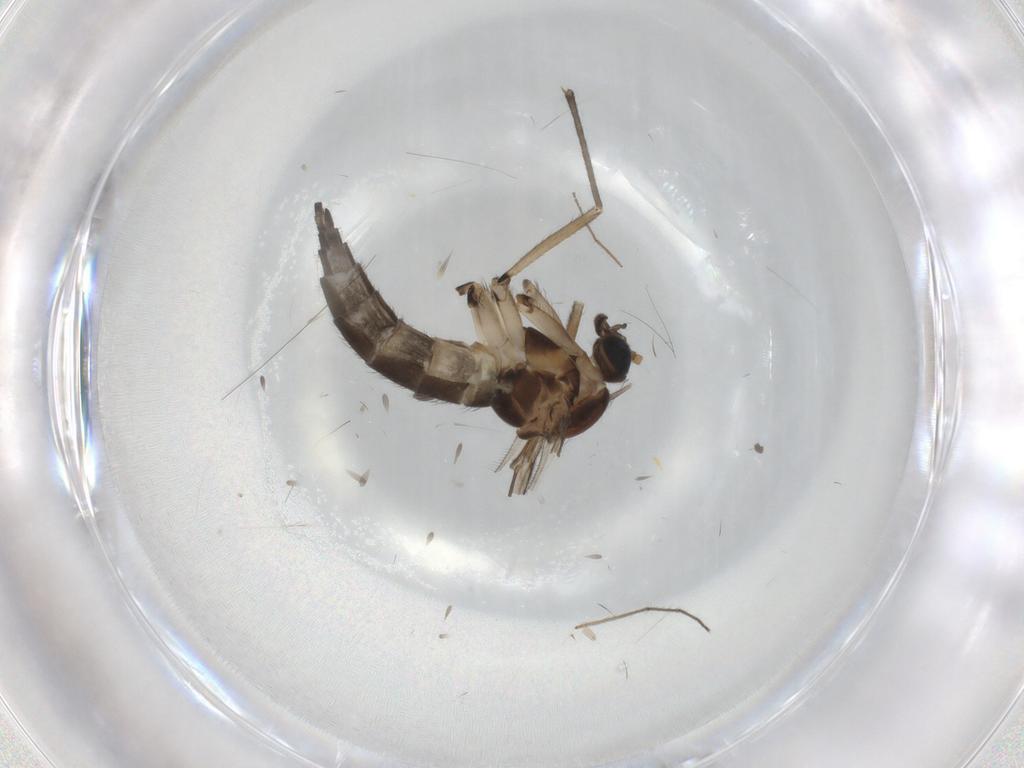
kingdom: Animalia
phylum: Arthropoda
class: Insecta
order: Diptera
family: Sciaridae
